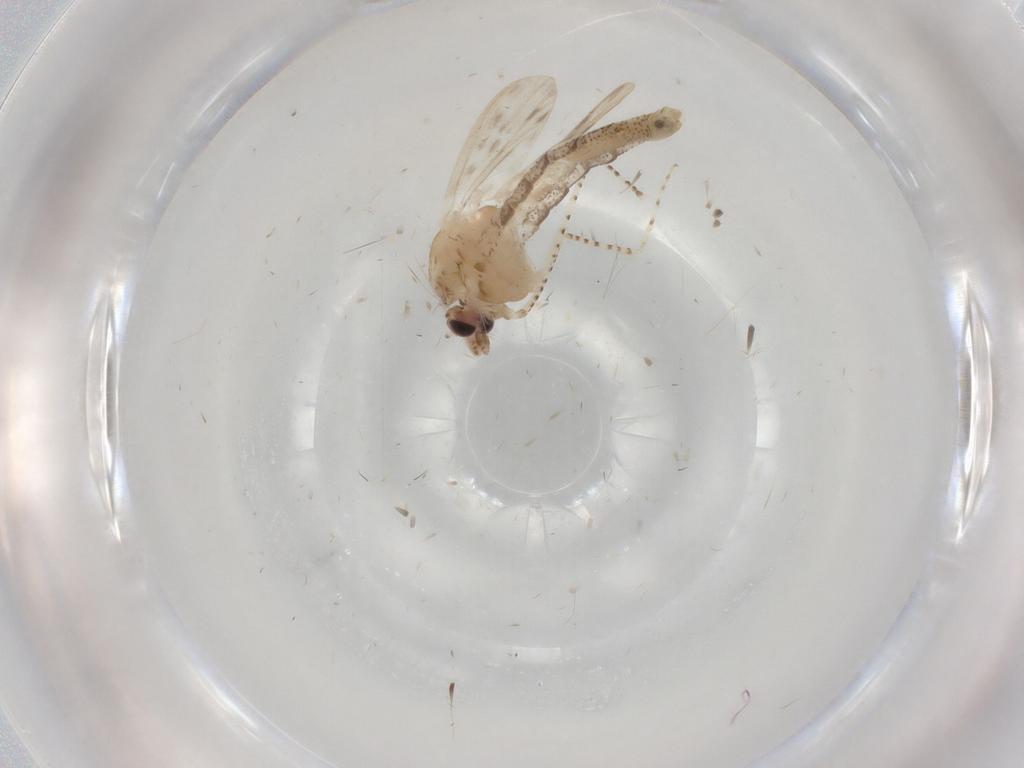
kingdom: Animalia
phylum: Arthropoda
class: Insecta
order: Diptera
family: Chaoboridae
